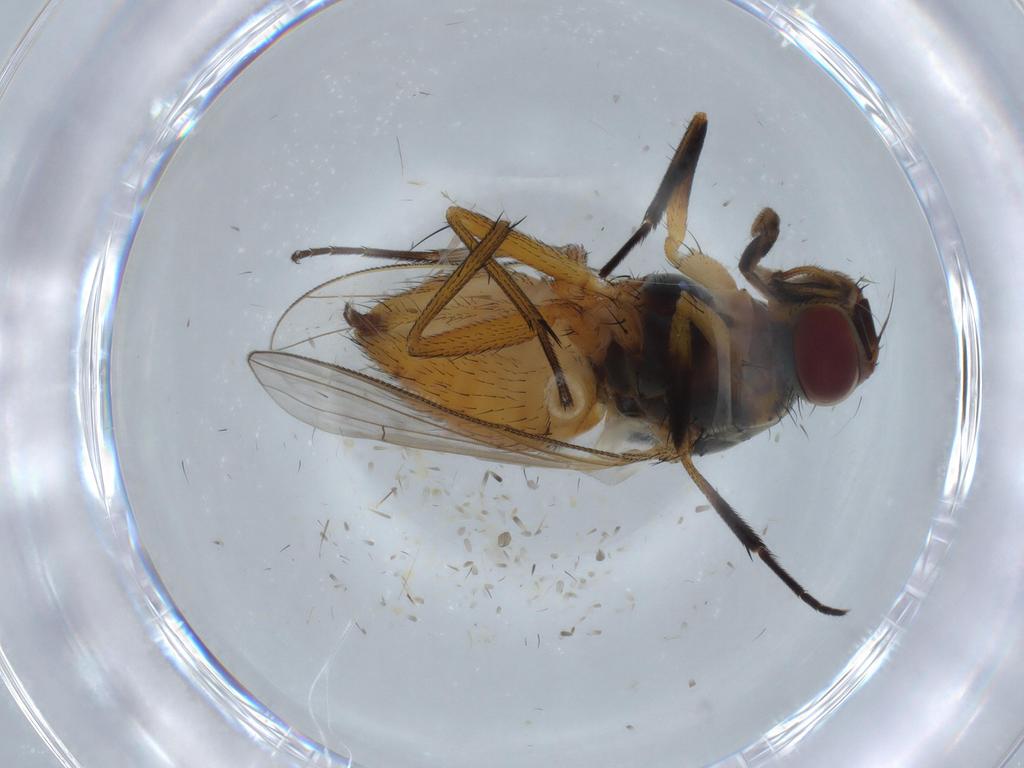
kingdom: Animalia
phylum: Arthropoda
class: Insecta
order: Diptera
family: Muscidae
